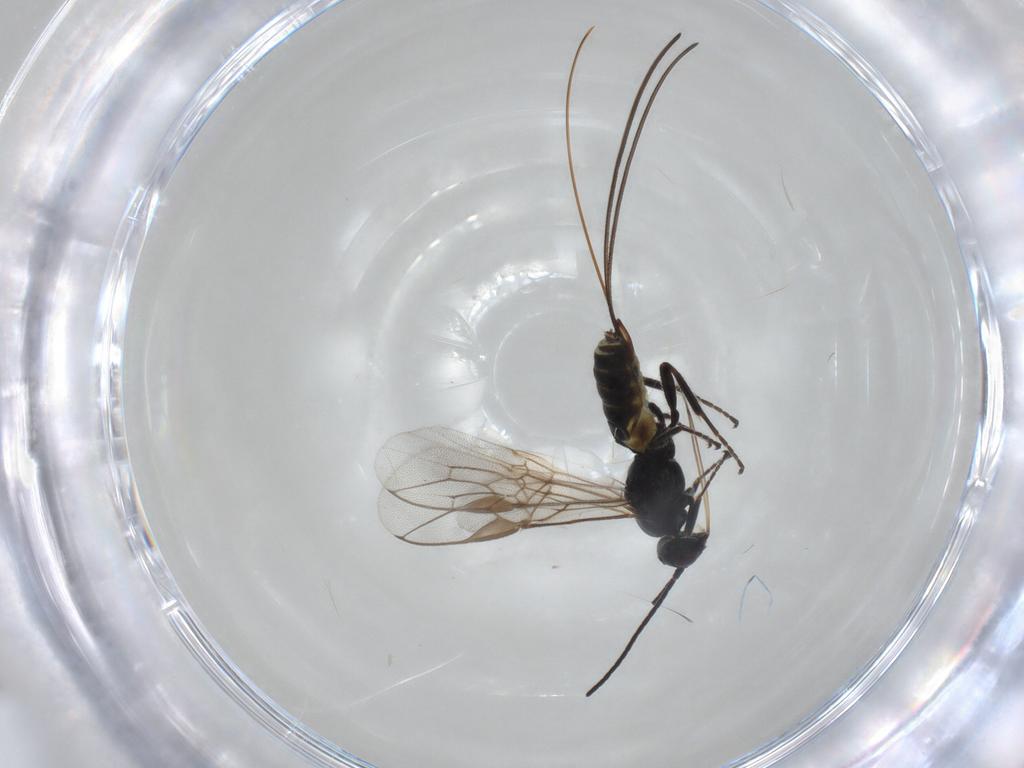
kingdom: Animalia
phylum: Arthropoda
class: Insecta
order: Hymenoptera
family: Braconidae
